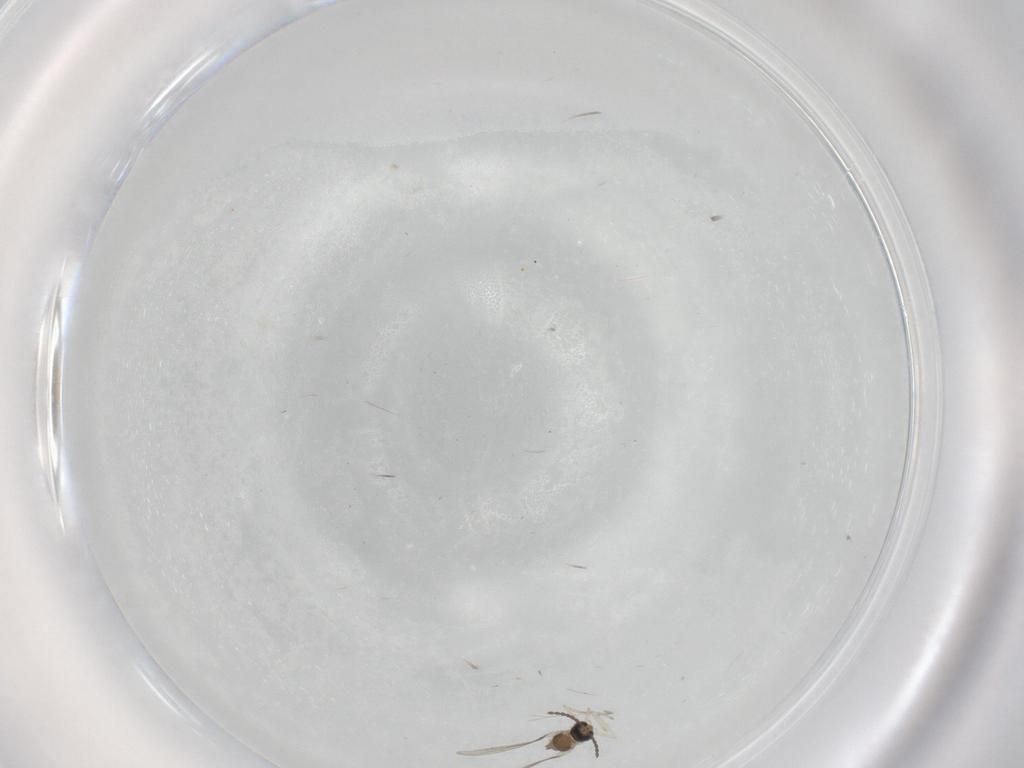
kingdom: Animalia
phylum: Arthropoda
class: Insecta
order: Diptera
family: Cecidomyiidae
